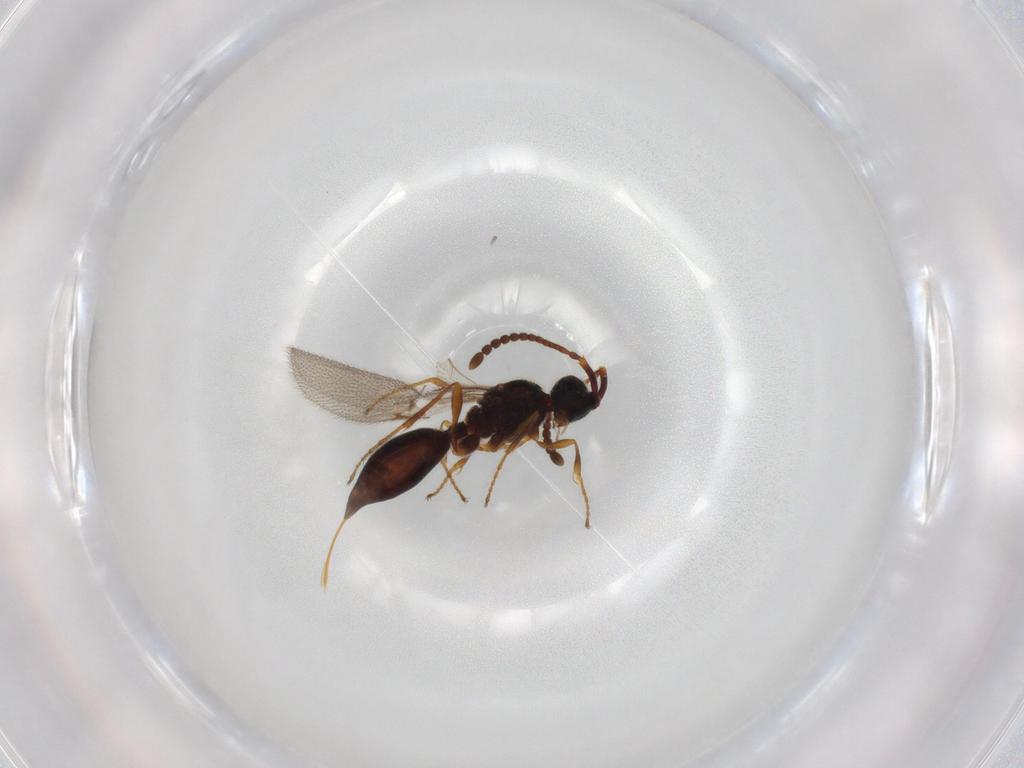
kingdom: Animalia
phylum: Arthropoda
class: Insecta
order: Hymenoptera
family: Diapriidae
